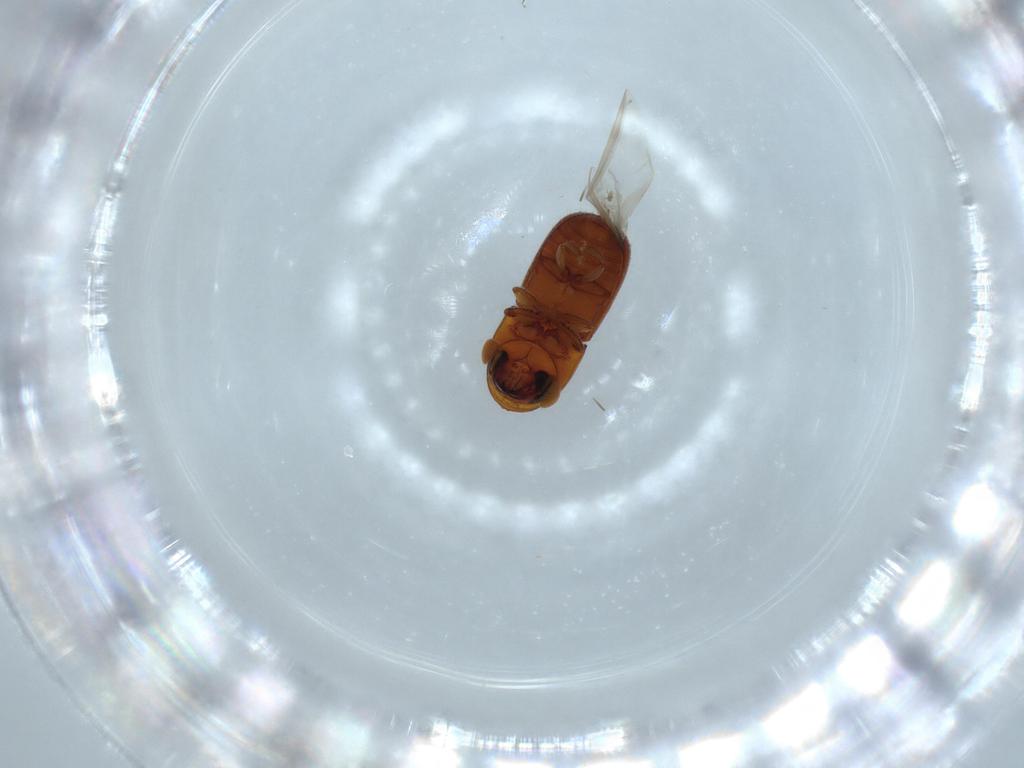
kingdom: Animalia
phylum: Arthropoda
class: Insecta
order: Coleoptera
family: Curculionidae
